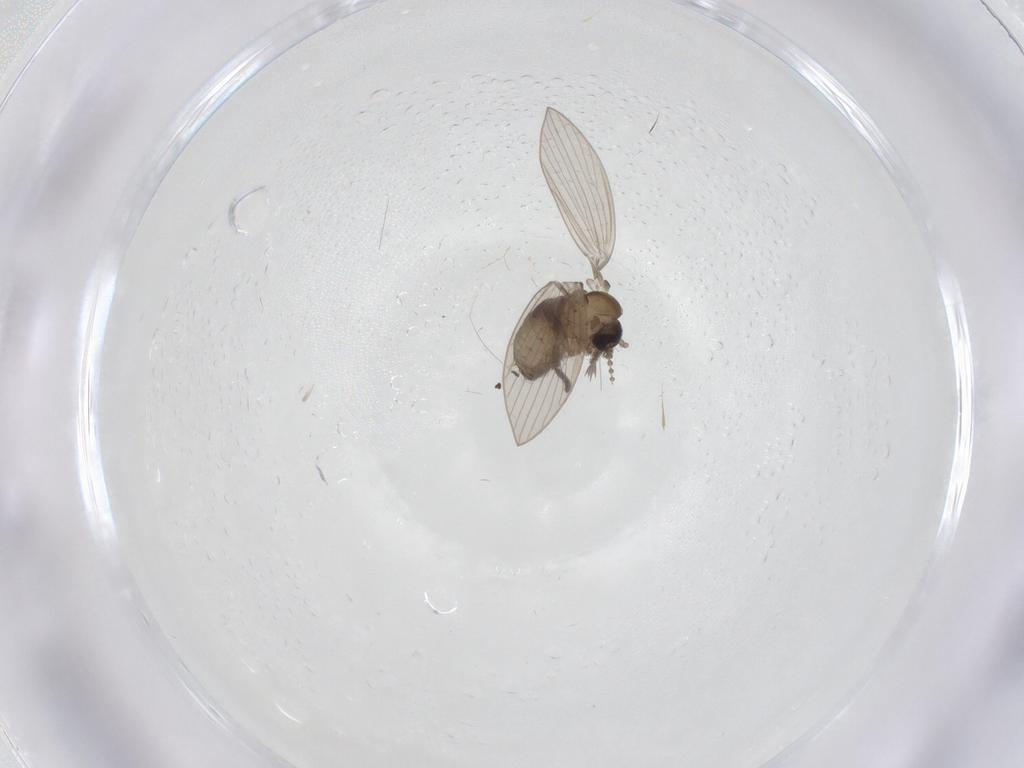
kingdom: Animalia
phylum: Arthropoda
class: Insecta
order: Diptera
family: Psychodidae
